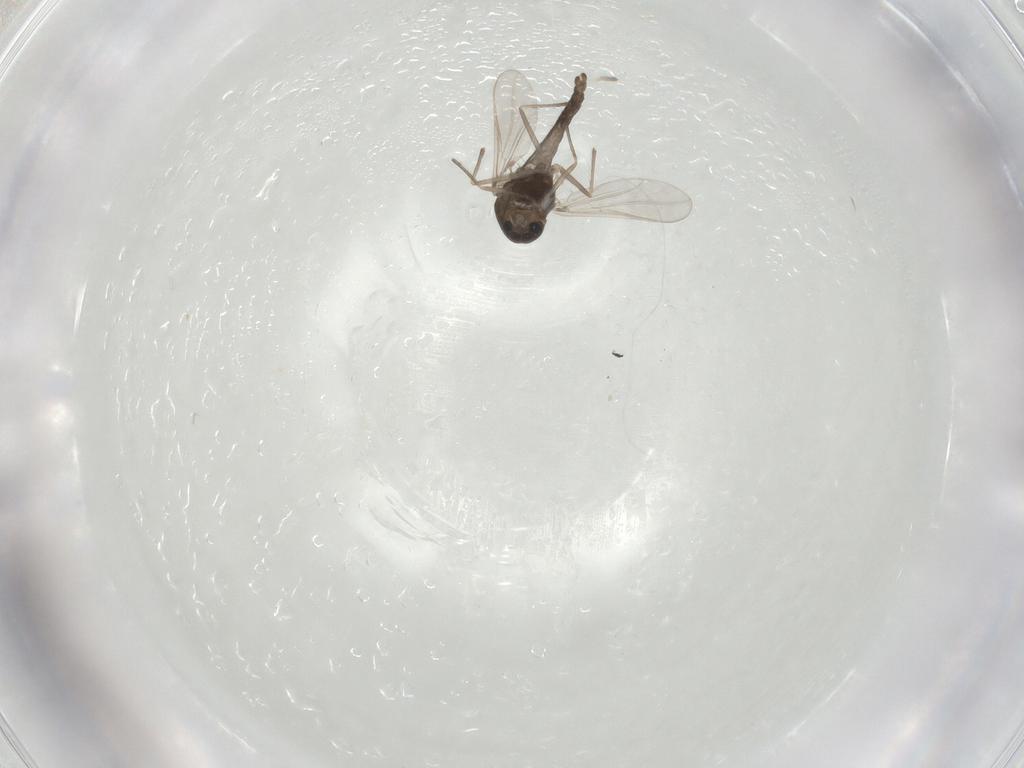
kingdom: Animalia
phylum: Arthropoda
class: Insecta
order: Diptera
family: Chironomidae
